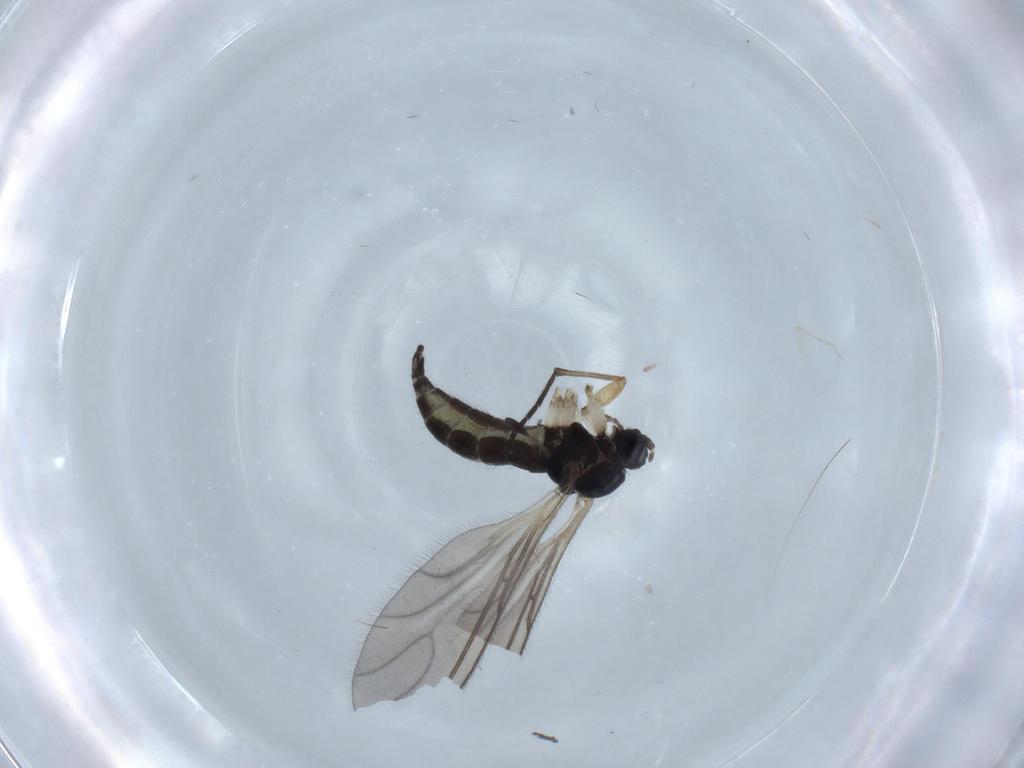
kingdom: Animalia
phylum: Arthropoda
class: Insecta
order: Diptera
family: Sciaridae
